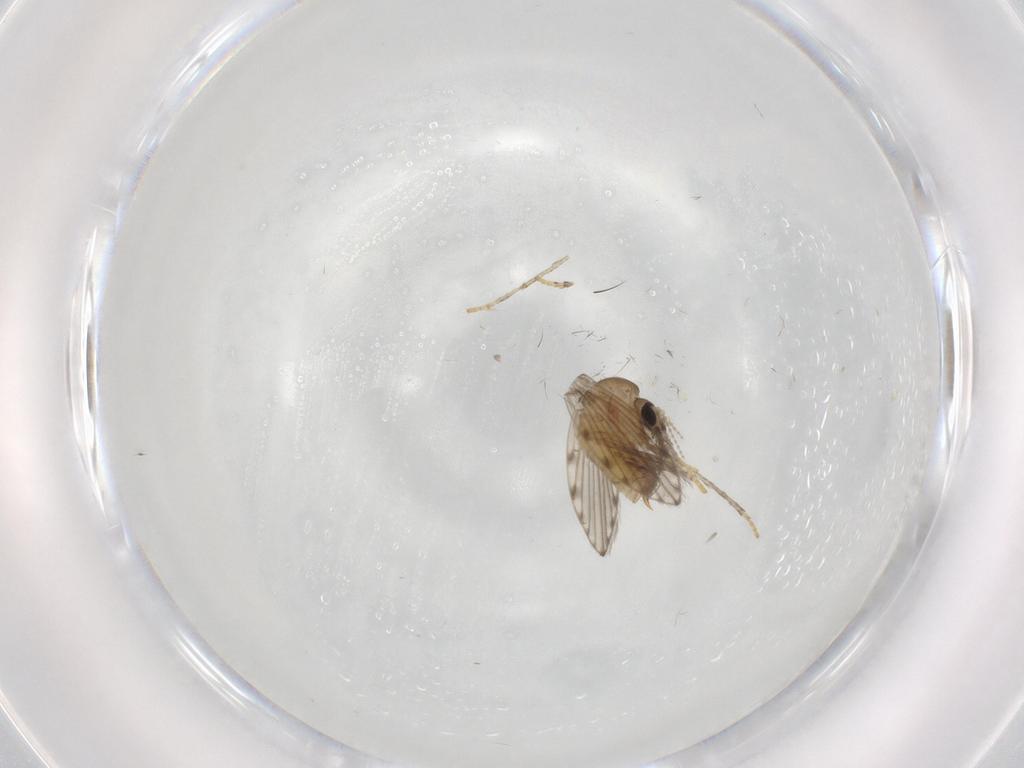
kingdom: Animalia
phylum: Arthropoda
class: Insecta
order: Diptera
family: Psychodidae
